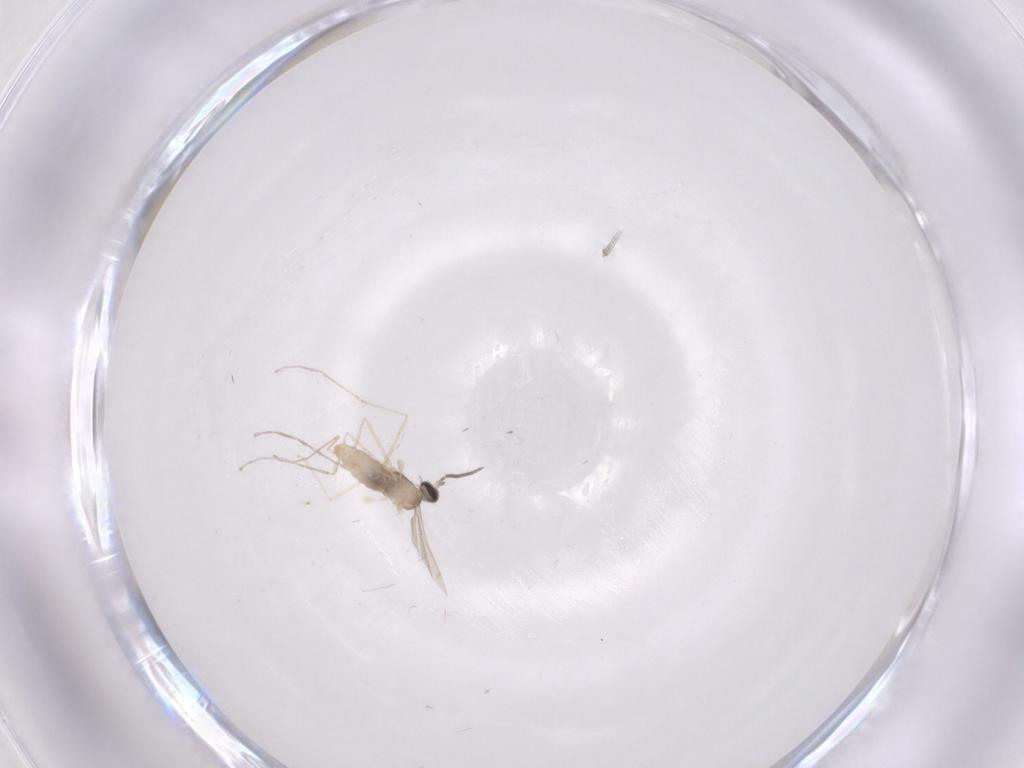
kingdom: Animalia
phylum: Arthropoda
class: Insecta
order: Diptera
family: Cecidomyiidae
